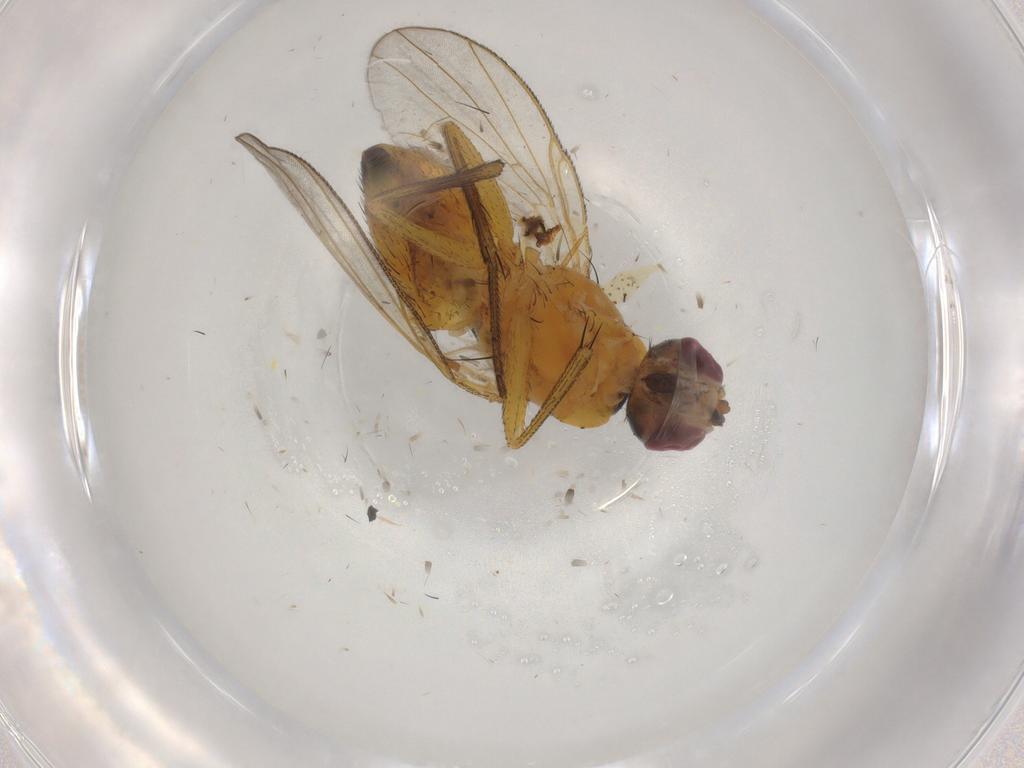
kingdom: Animalia
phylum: Arthropoda
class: Insecta
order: Diptera
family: Muscidae
